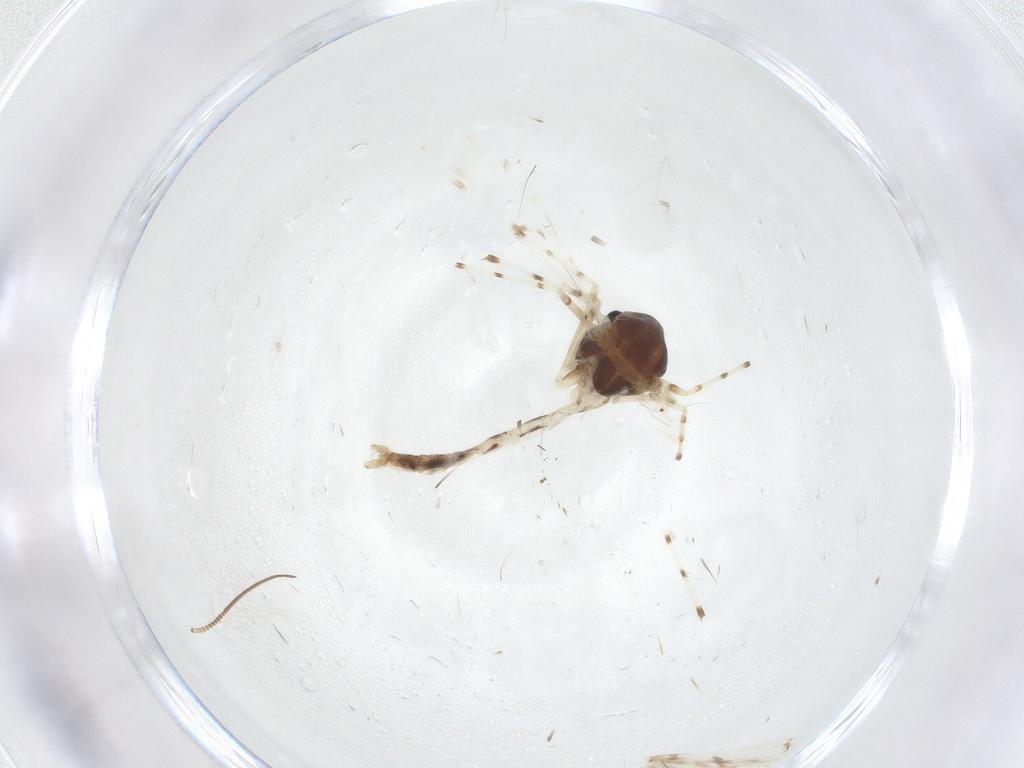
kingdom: Animalia
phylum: Arthropoda
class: Insecta
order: Diptera
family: Chironomidae
